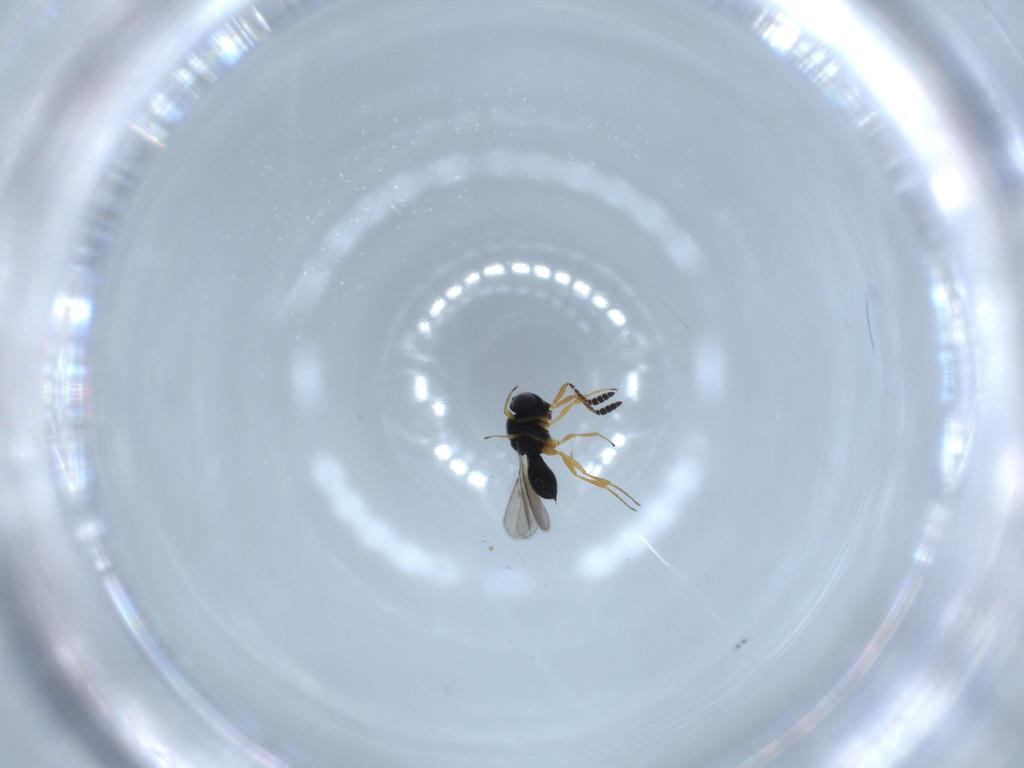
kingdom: Animalia
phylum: Arthropoda
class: Insecta
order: Hymenoptera
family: Scelionidae
